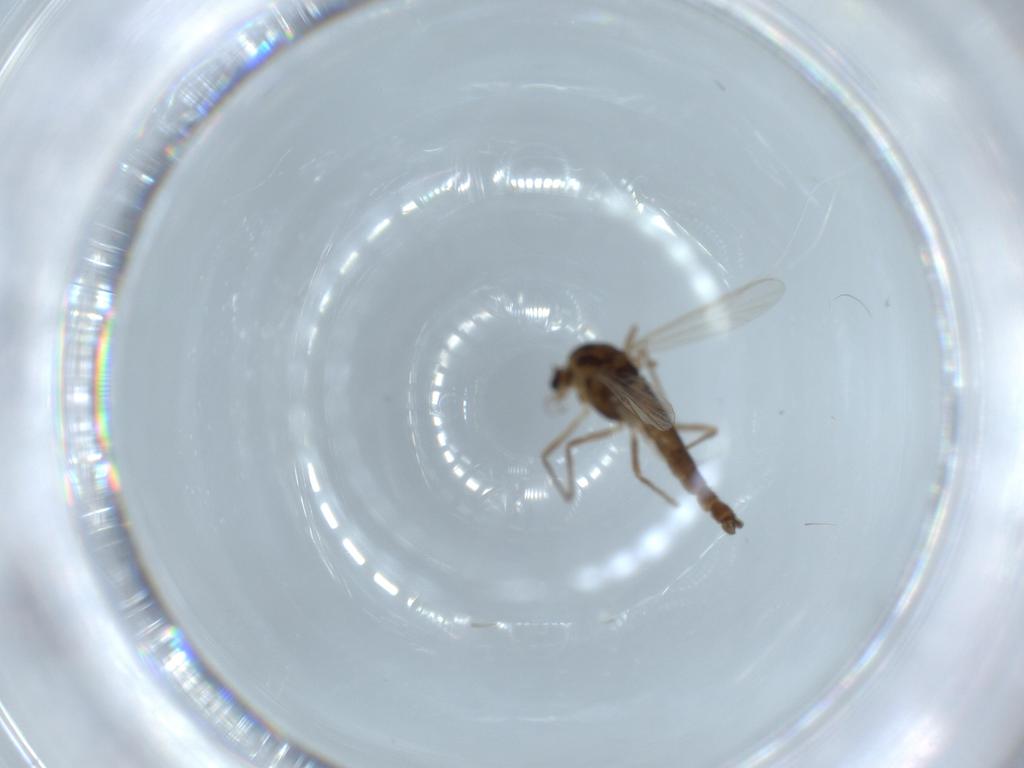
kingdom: Animalia
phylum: Arthropoda
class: Insecta
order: Diptera
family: Chironomidae
